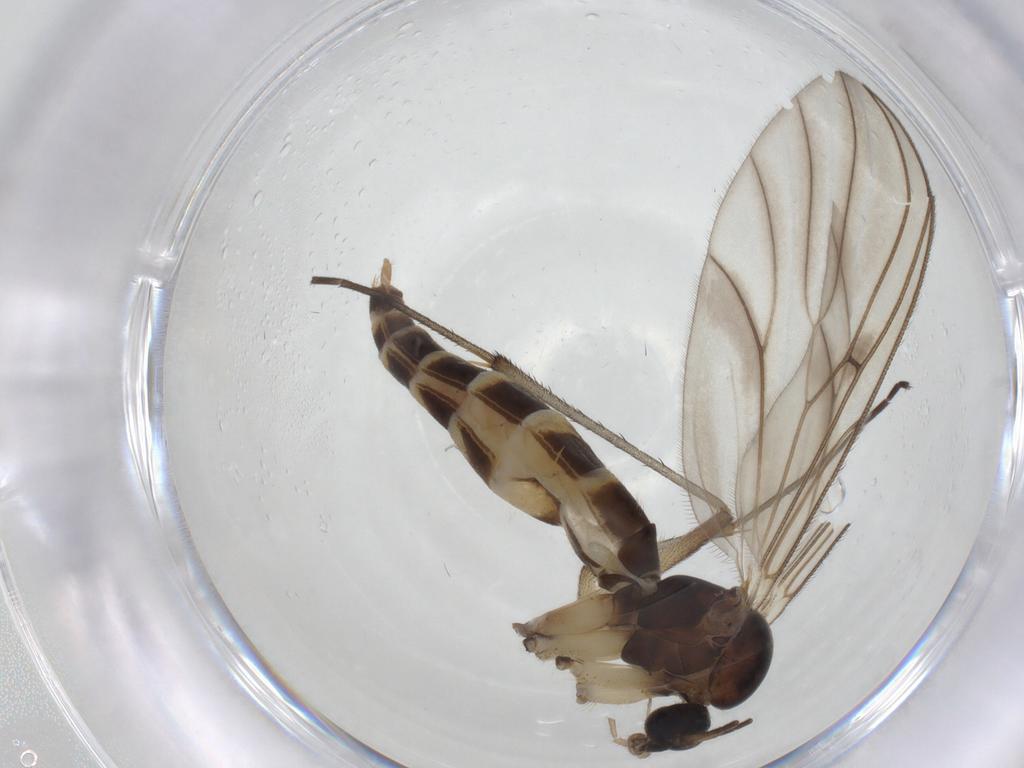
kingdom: Animalia
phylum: Arthropoda
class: Insecta
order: Diptera
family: Mycetophilidae
